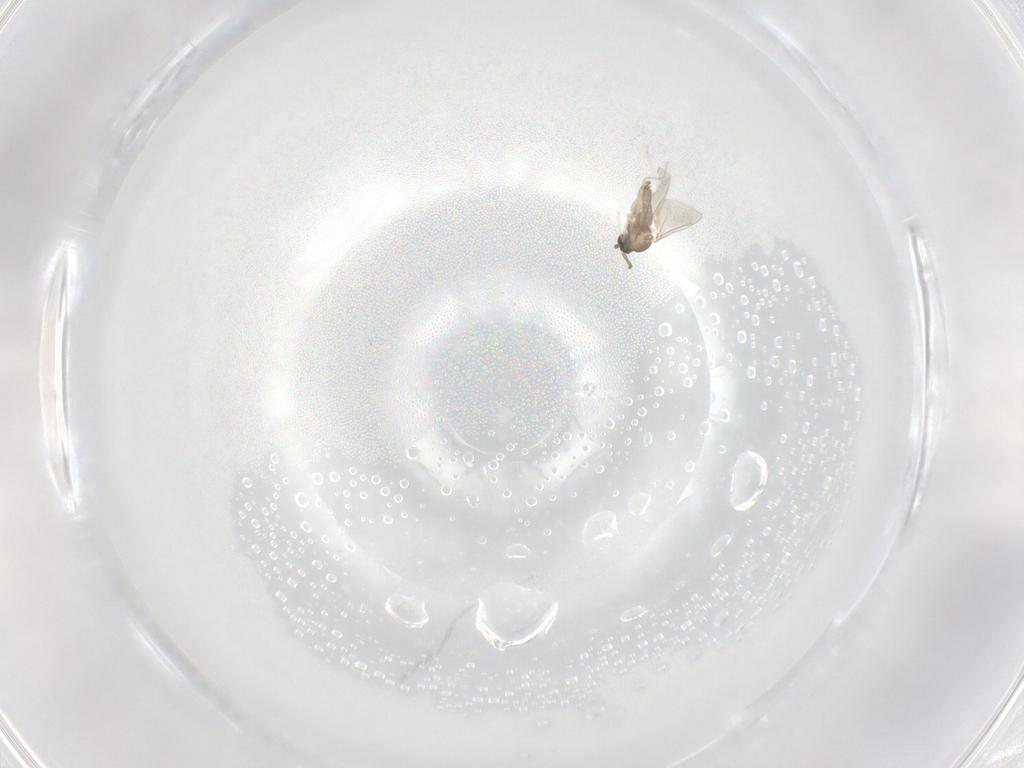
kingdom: Animalia
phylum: Arthropoda
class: Insecta
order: Diptera
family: Cecidomyiidae
